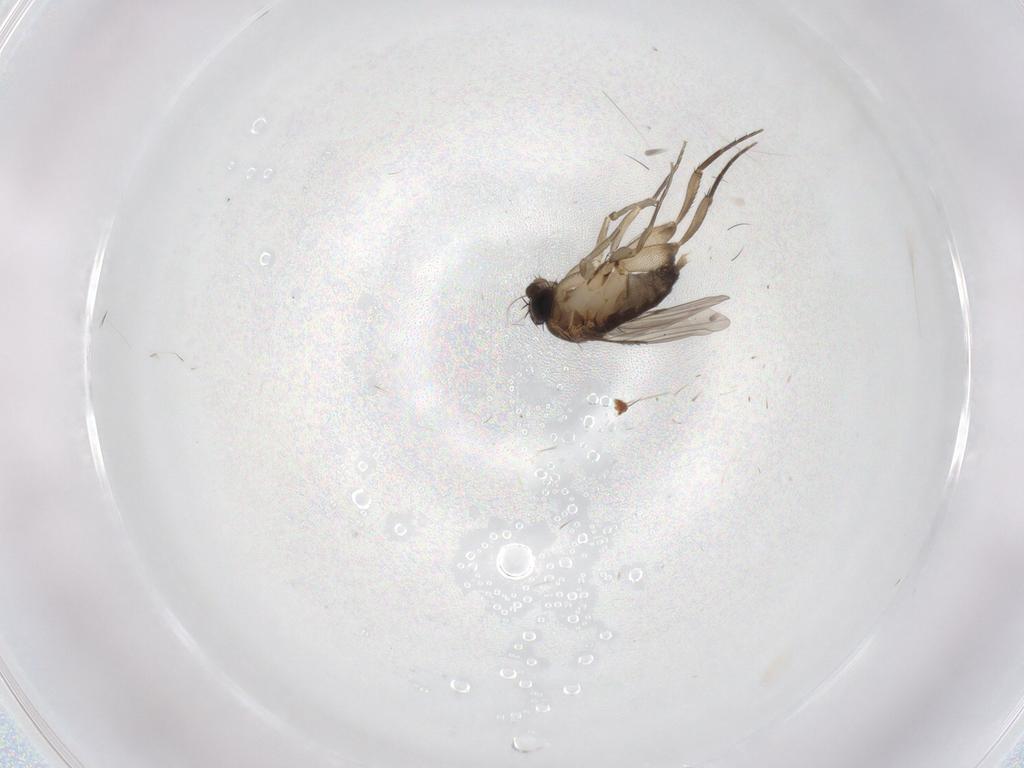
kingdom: Animalia
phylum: Arthropoda
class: Insecta
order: Diptera
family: Phoridae
